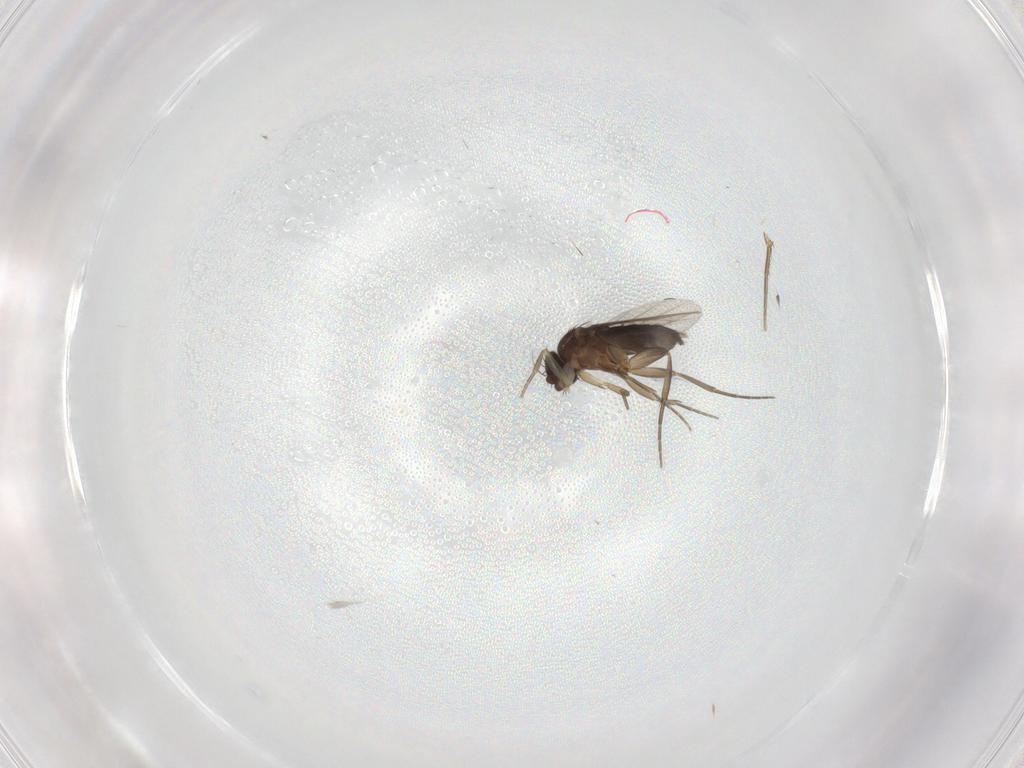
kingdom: Animalia
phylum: Arthropoda
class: Insecta
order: Diptera
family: Phoridae
